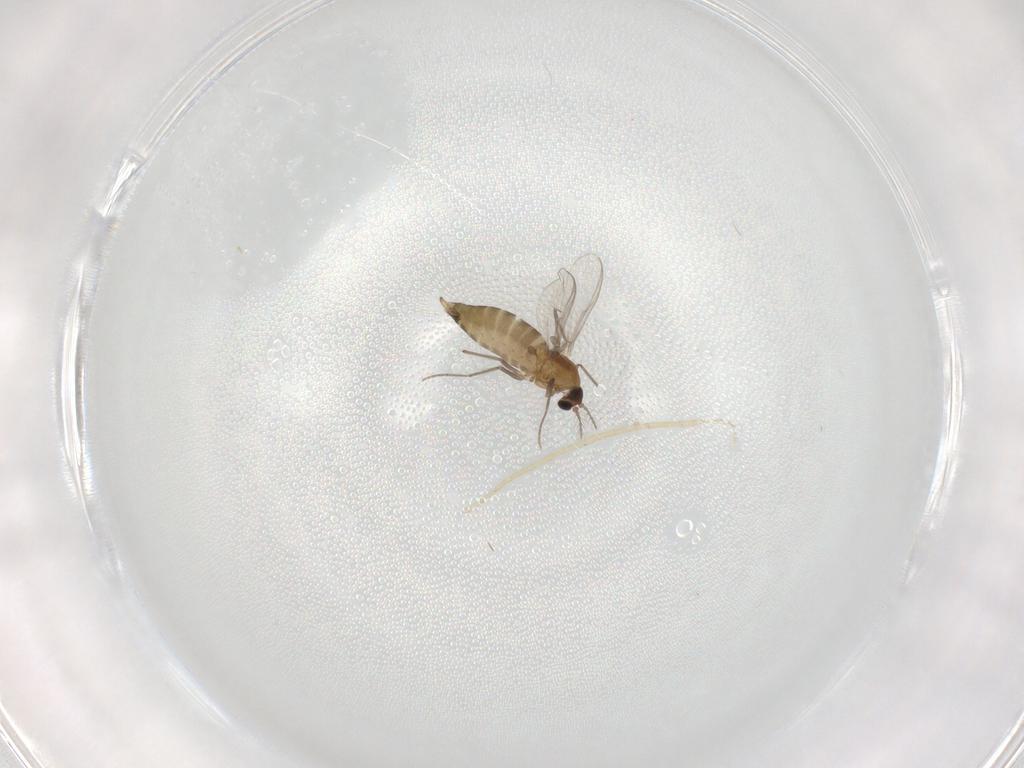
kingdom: Animalia
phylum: Arthropoda
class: Insecta
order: Diptera
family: Chironomidae
